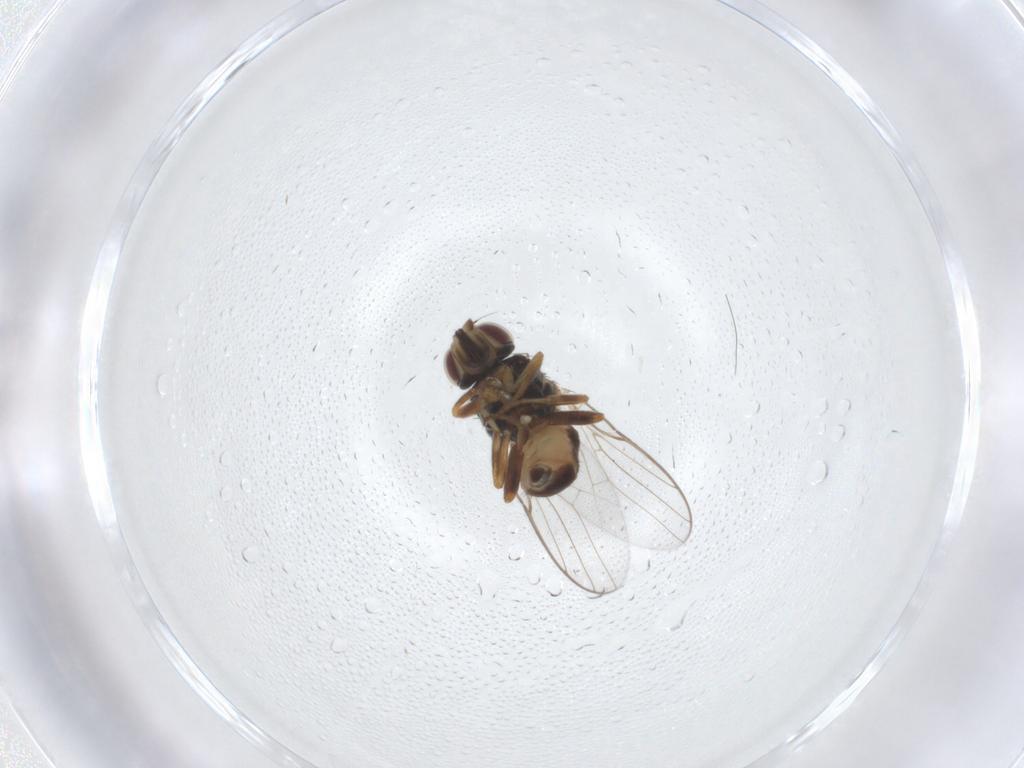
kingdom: Animalia
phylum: Arthropoda
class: Insecta
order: Diptera
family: Chloropidae
